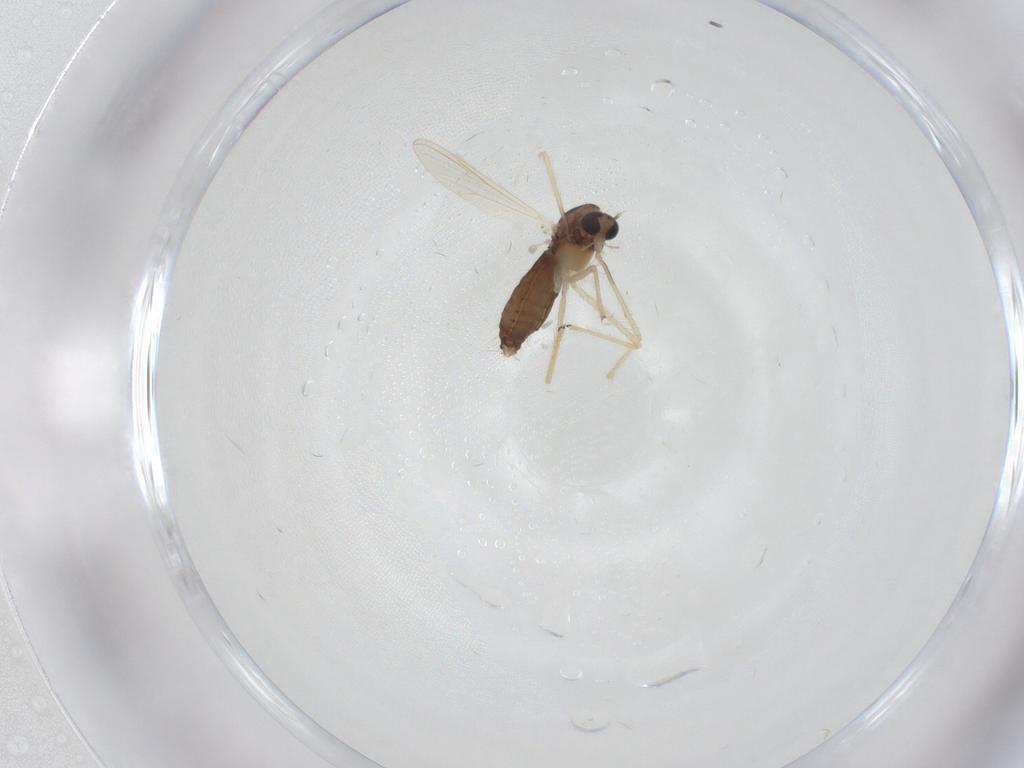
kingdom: Animalia
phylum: Arthropoda
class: Insecta
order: Diptera
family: Chironomidae
